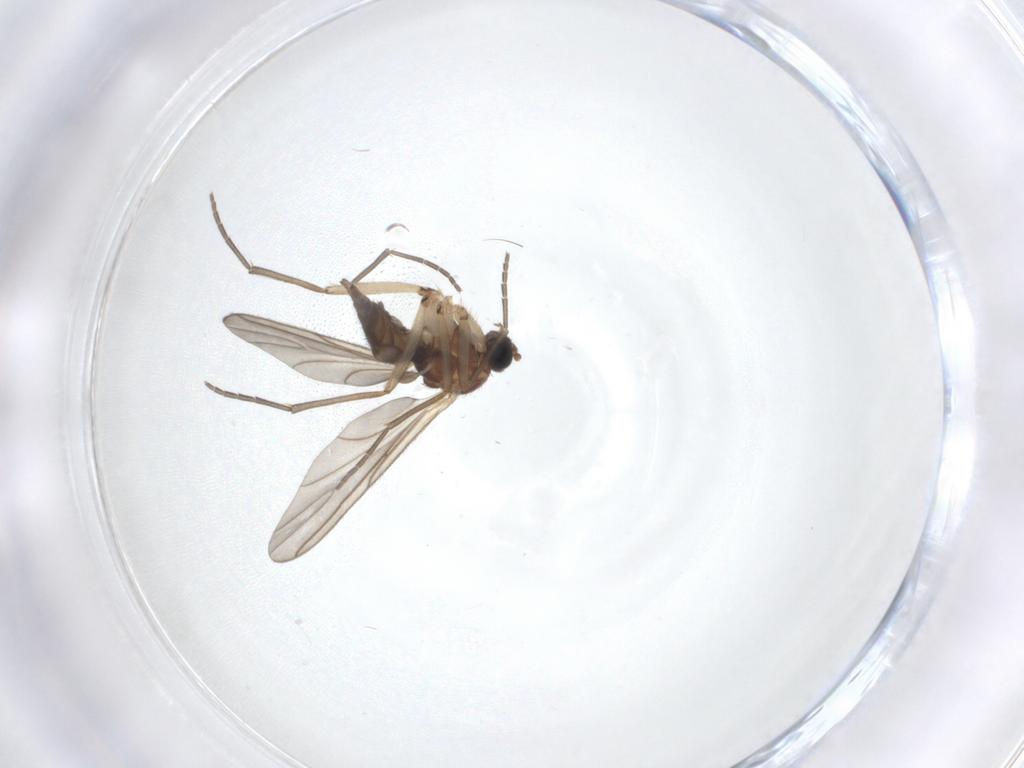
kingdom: Animalia
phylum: Arthropoda
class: Insecta
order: Diptera
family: Sciaridae
